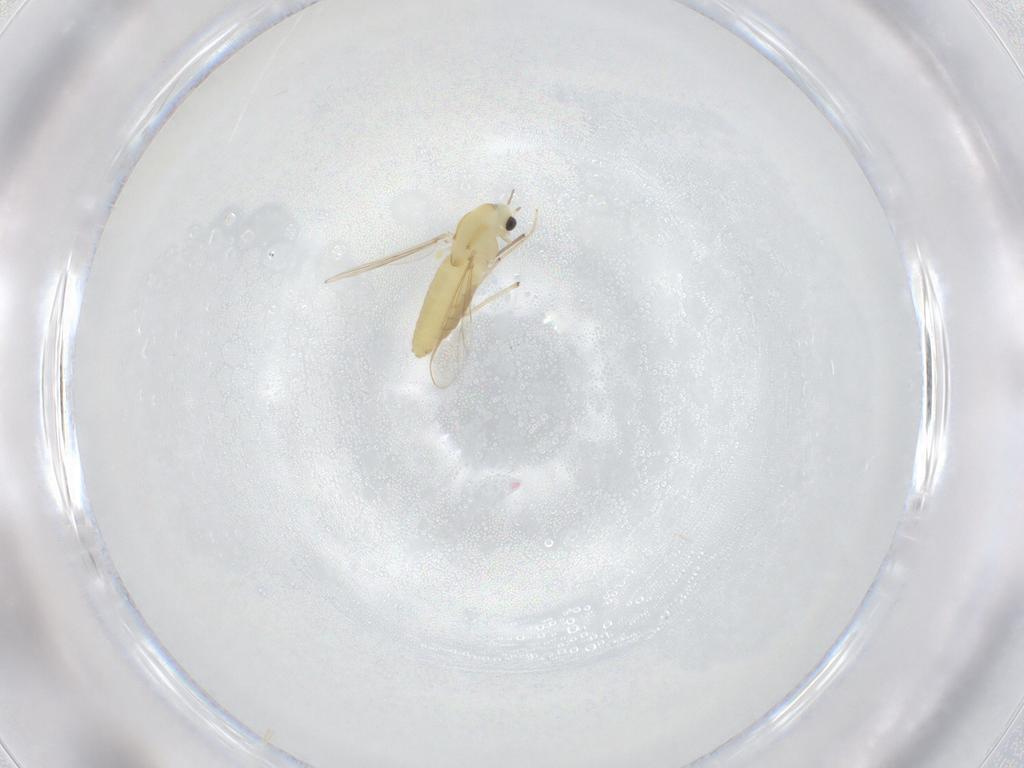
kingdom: Animalia
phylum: Arthropoda
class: Insecta
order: Diptera
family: Chironomidae
